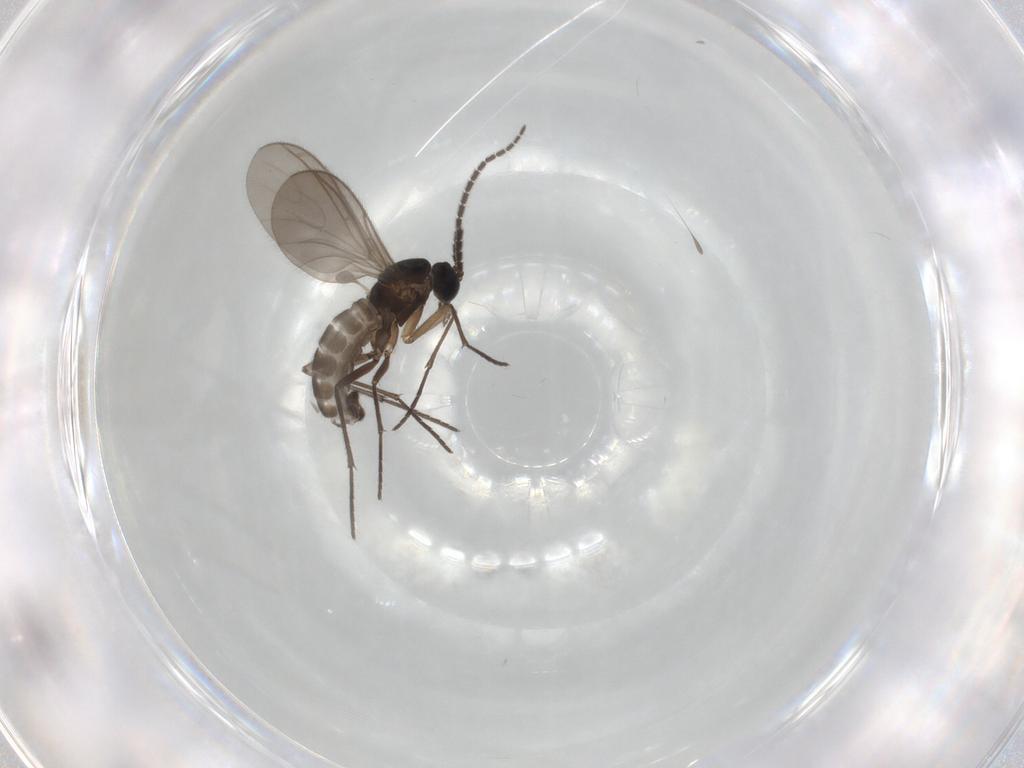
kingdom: Animalia
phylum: Arthropoda
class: Insecta
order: Diptera
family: Sciaridae
